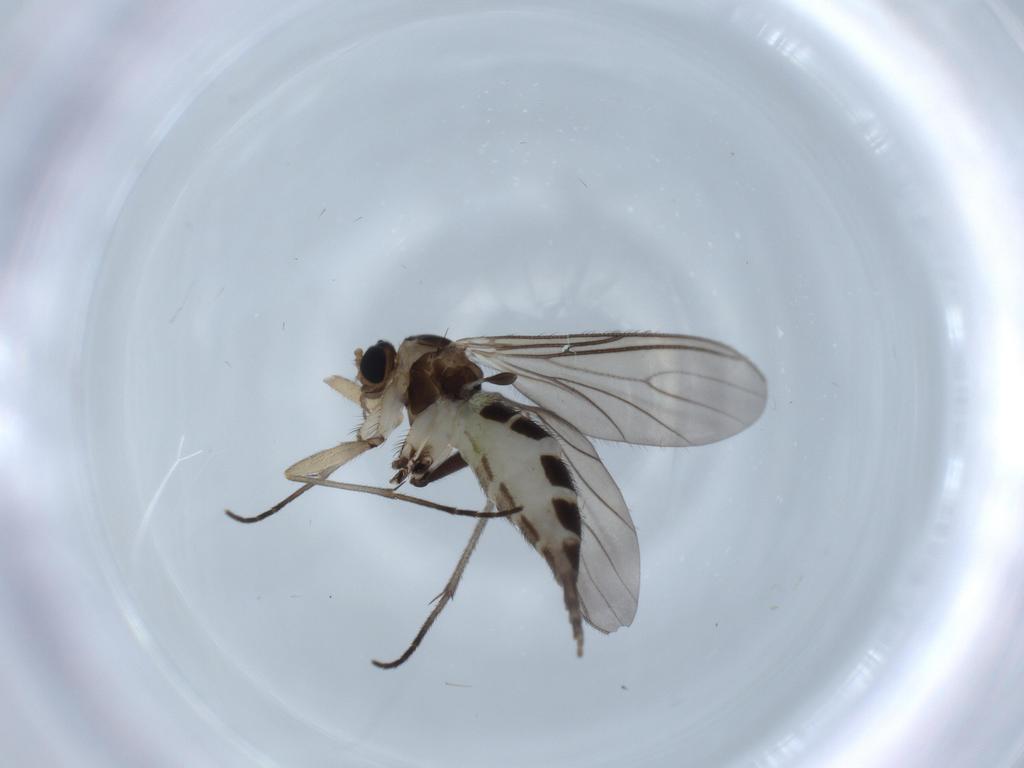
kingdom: Animalia
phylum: Arthropoda
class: Insecta
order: Diptera
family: Sciaridae
